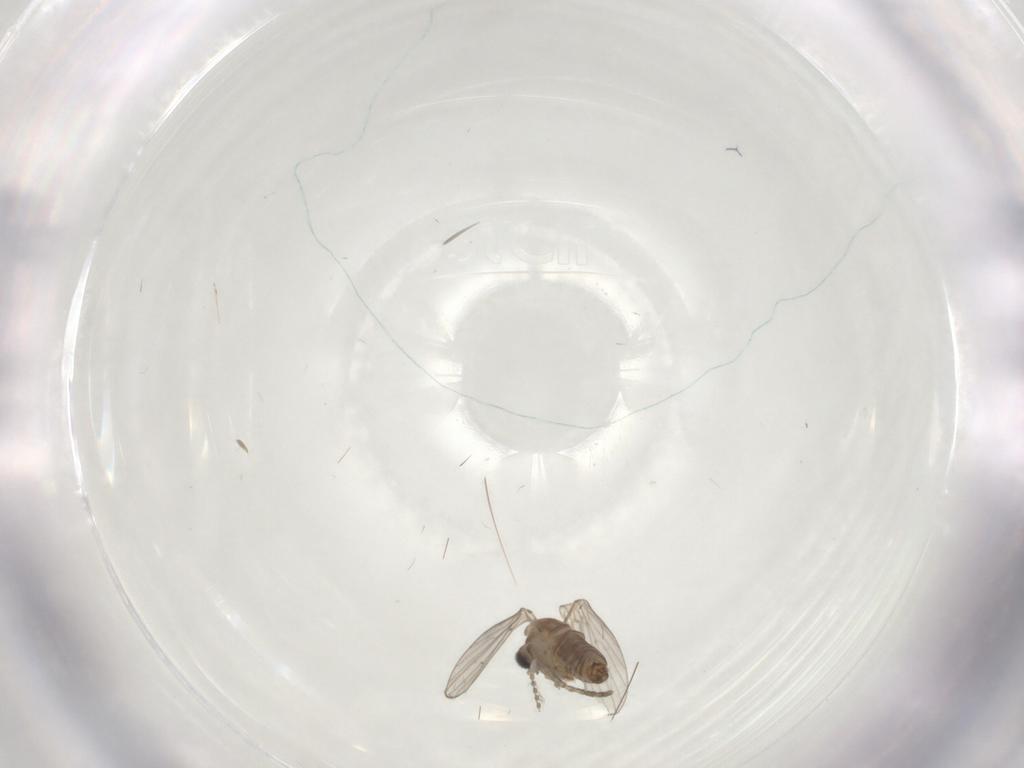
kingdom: Animalia
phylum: Arthropoda
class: Insecta
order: Diptera
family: Psychodidae
